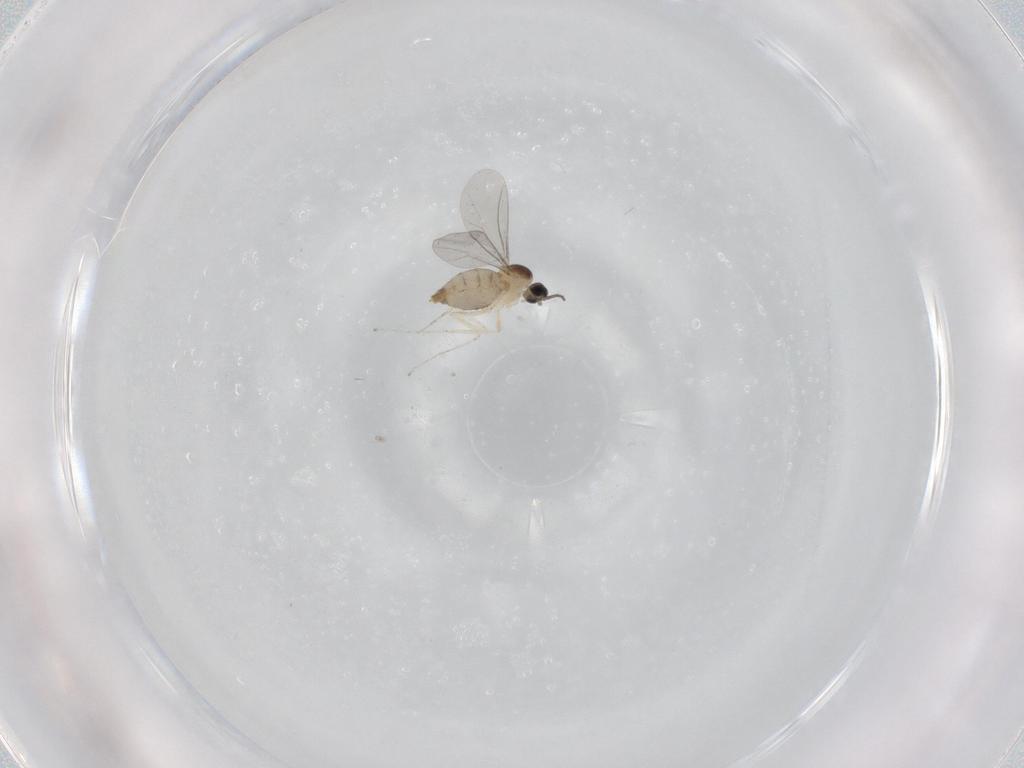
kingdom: Animalia
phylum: Arthropoda
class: Insecta
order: Diptera
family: Cecidomyiidae
